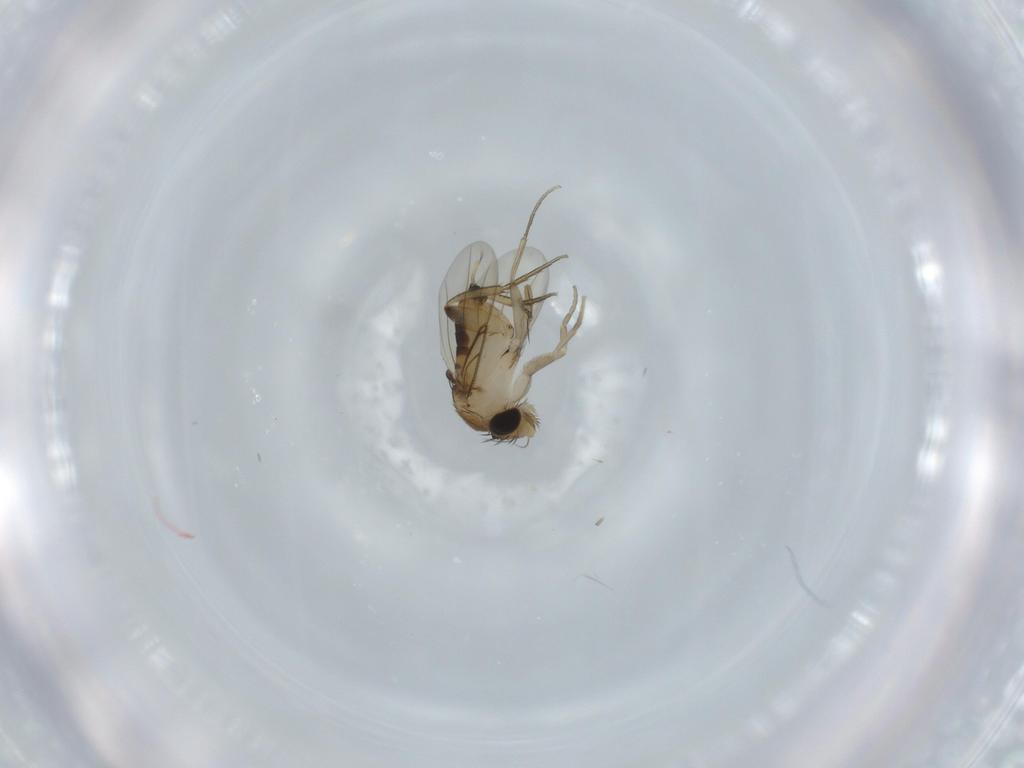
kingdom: Animalia
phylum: Arthropoda
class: Insecta
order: Diptera
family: Phoridae
